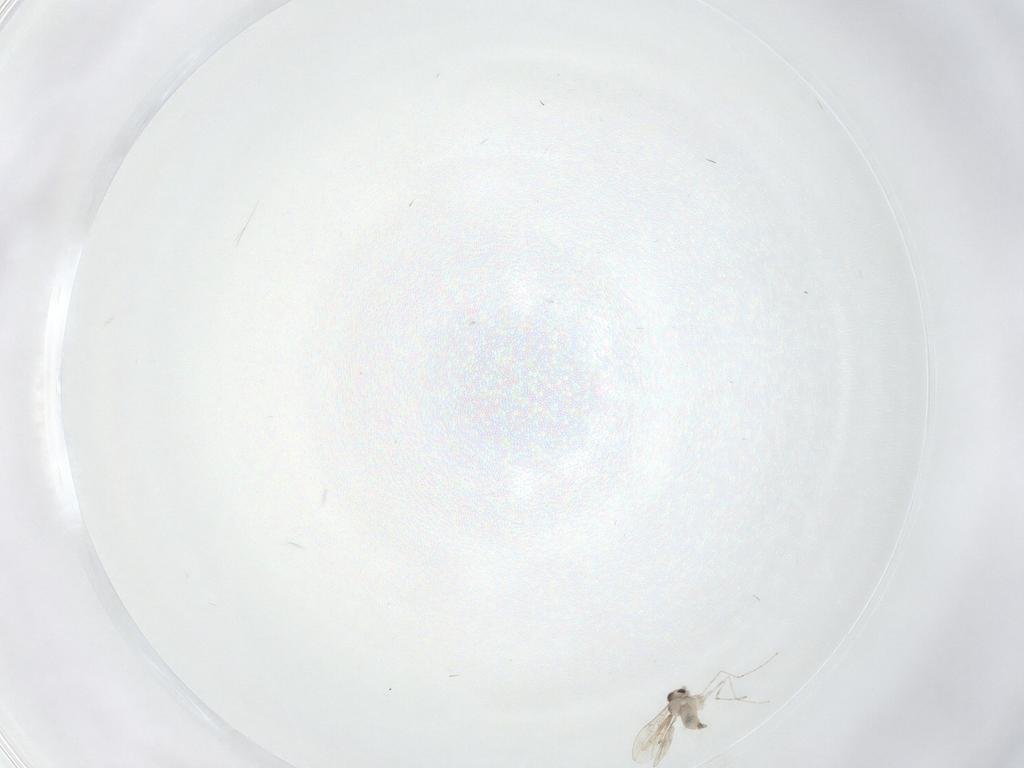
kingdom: Animalia
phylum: Arthropoda
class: Insecta
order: Diptera
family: Cecidomyiidae
